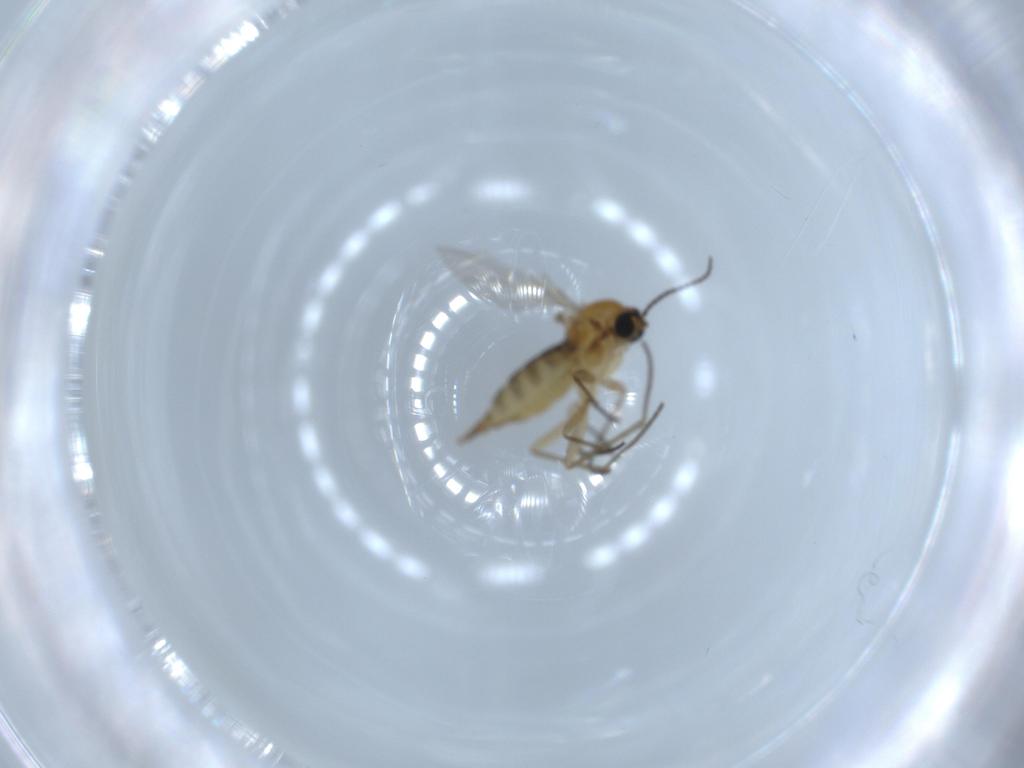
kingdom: Animalia
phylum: Arthropoda
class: Insecta
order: Diptera
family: Sciaridae
